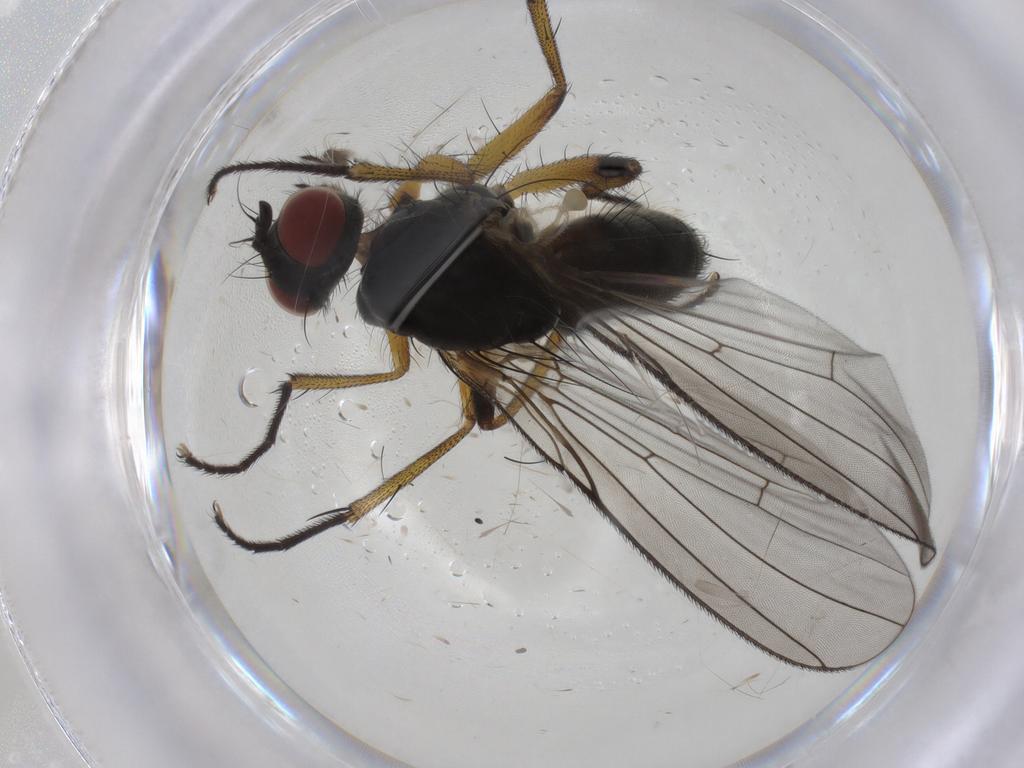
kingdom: Animalia
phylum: Arthropoda
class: Insecta
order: Diptera
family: Muscidae
